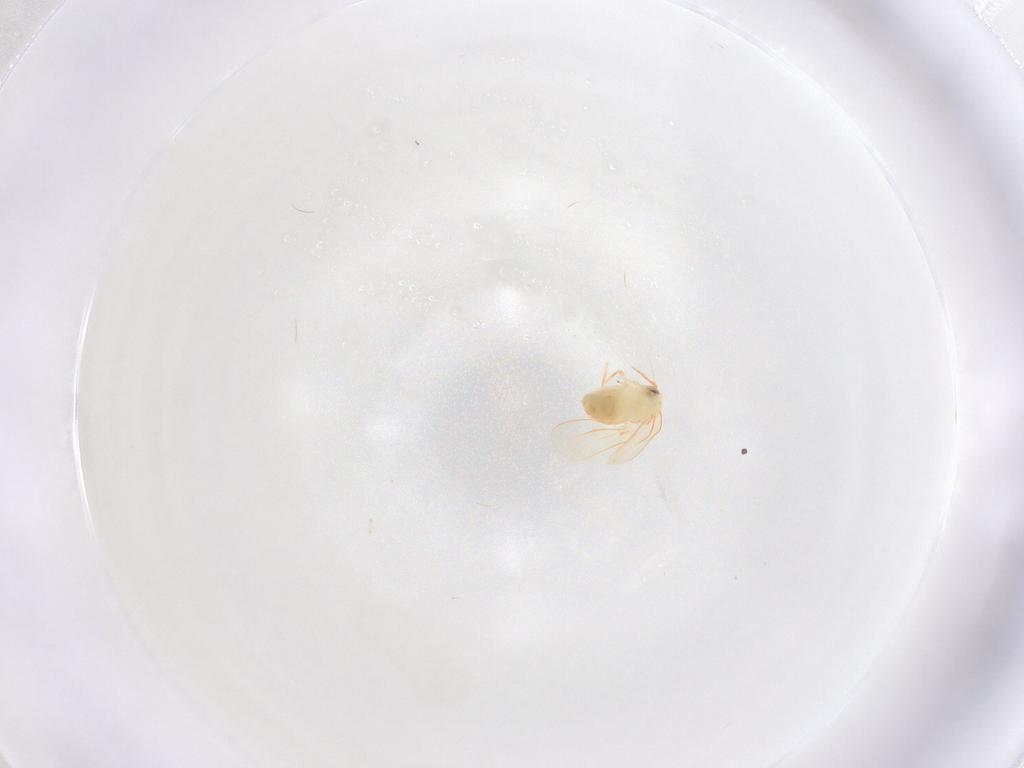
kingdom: Animalia
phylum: Arthropoda
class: Insecta
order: Hemiptera
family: Aleyrodidae
